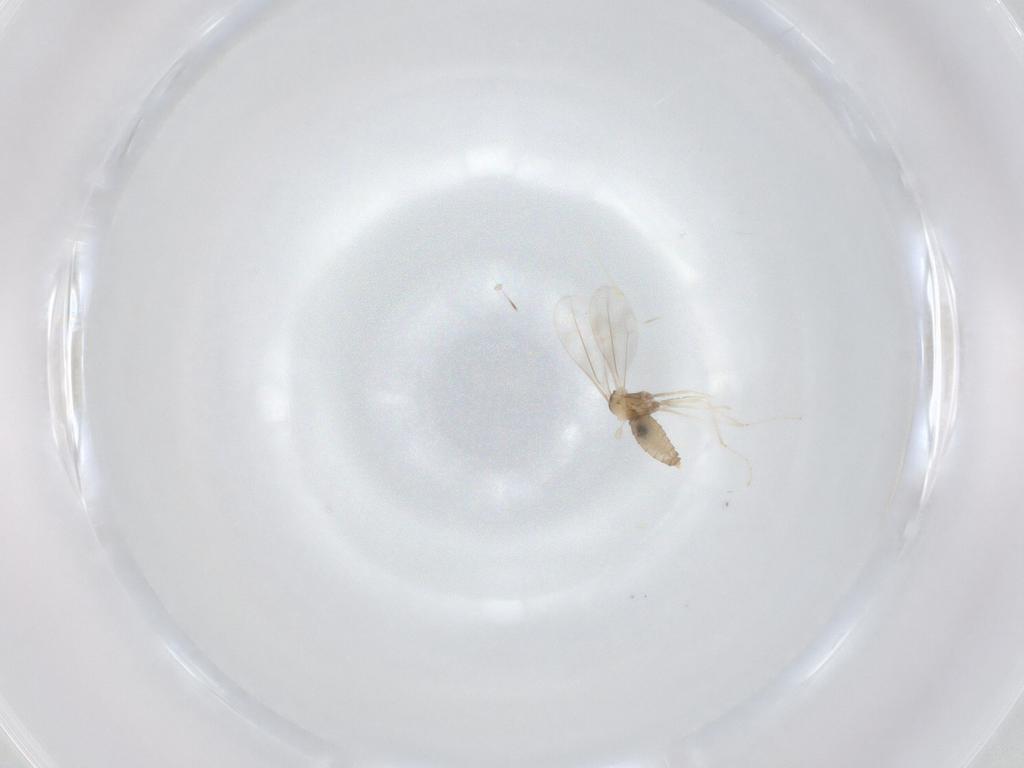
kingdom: Animalia
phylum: Arthropoda
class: Insecta
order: Diptera
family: Cecidomyiidae
